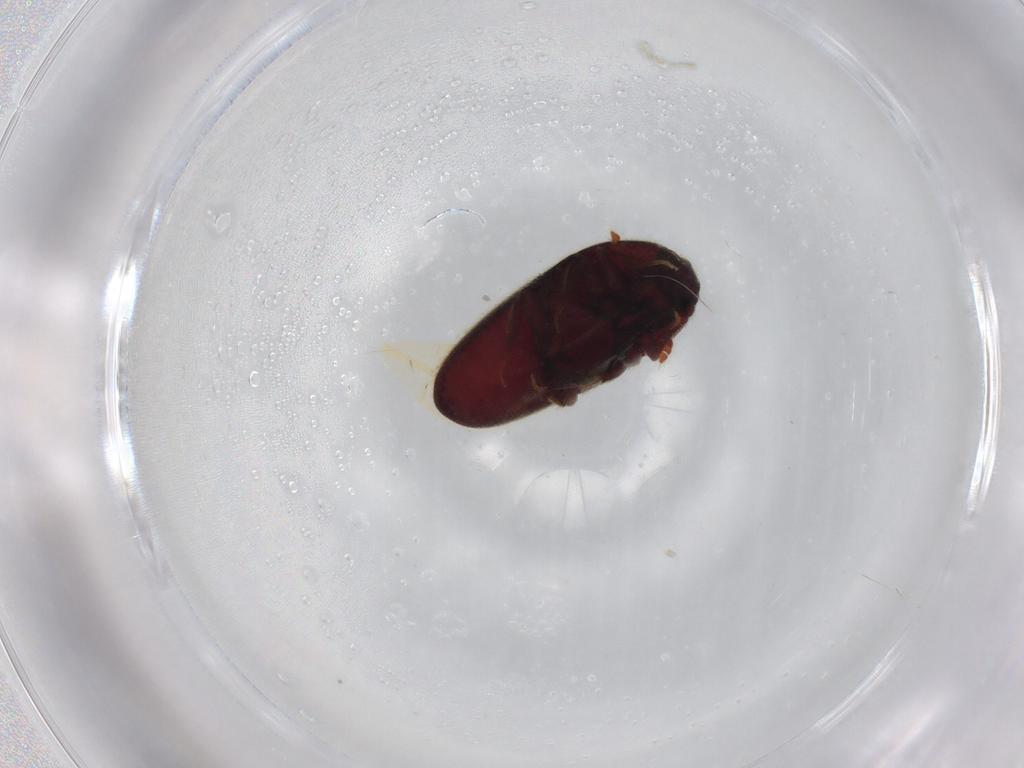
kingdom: Animalia
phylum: Arthropoda
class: Insecta
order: Coleoptera
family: Throscidae
